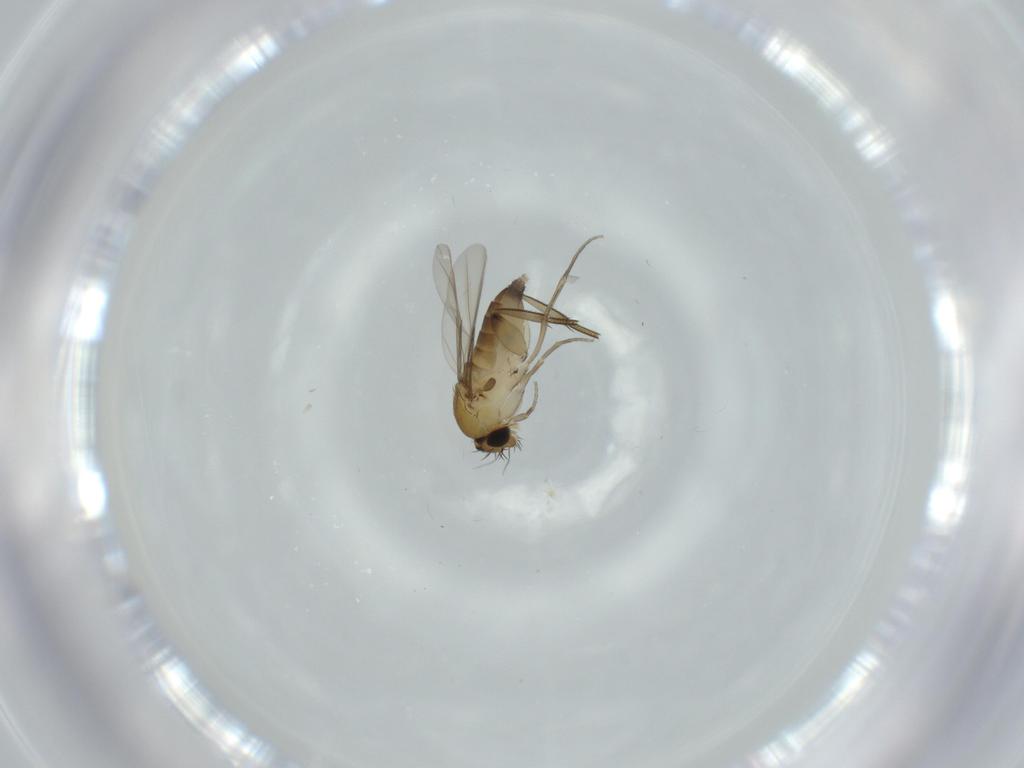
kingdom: Animalia
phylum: Arthropoda
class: Insecta
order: Diptera
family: Phoridae
